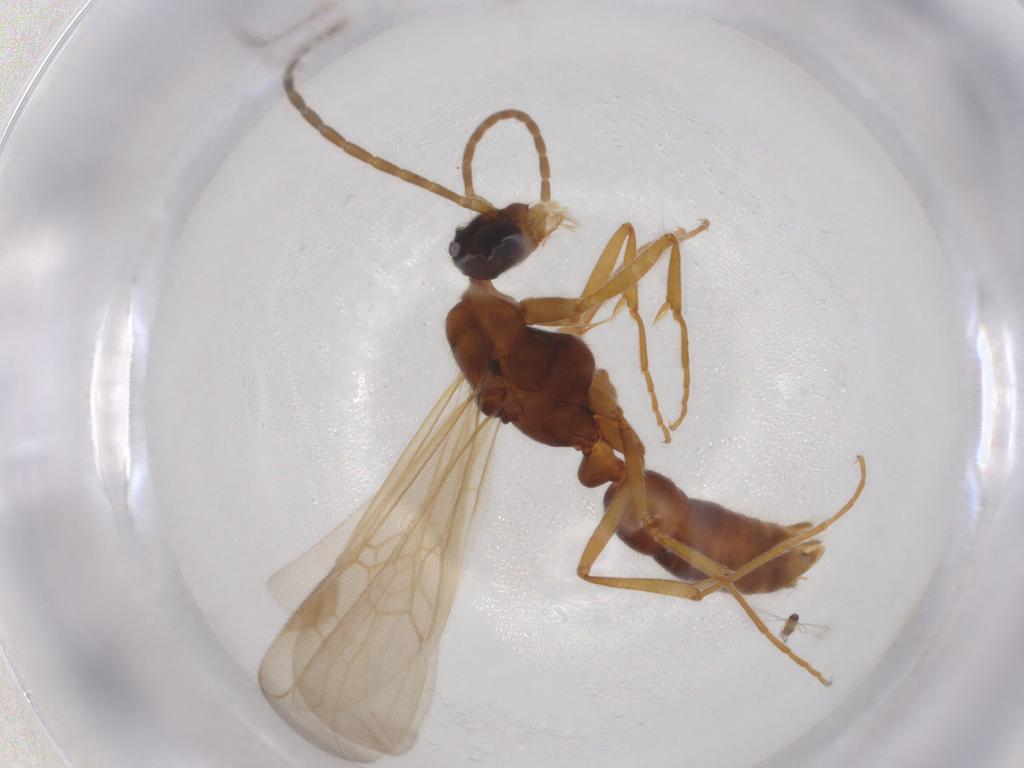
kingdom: Animalia
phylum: Arthropoda
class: Insecta
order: Hymenoptera
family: Formicidae
